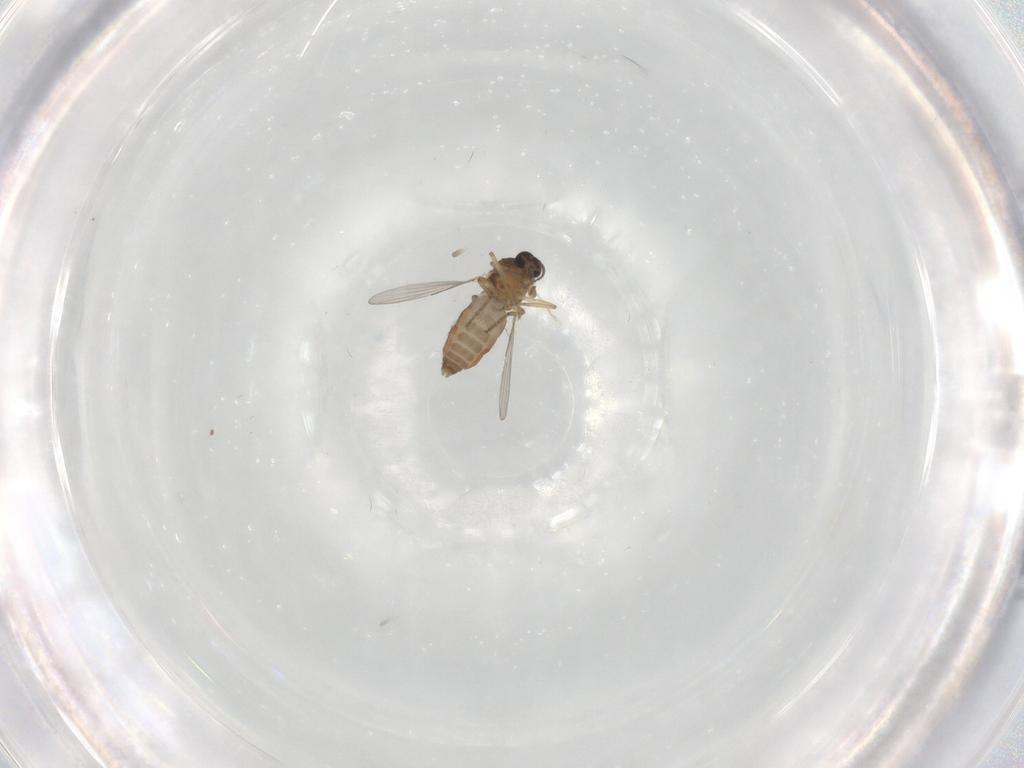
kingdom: Animalia
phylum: Arthropoda
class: Insecta
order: Diptera
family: Ceratopogonidae
